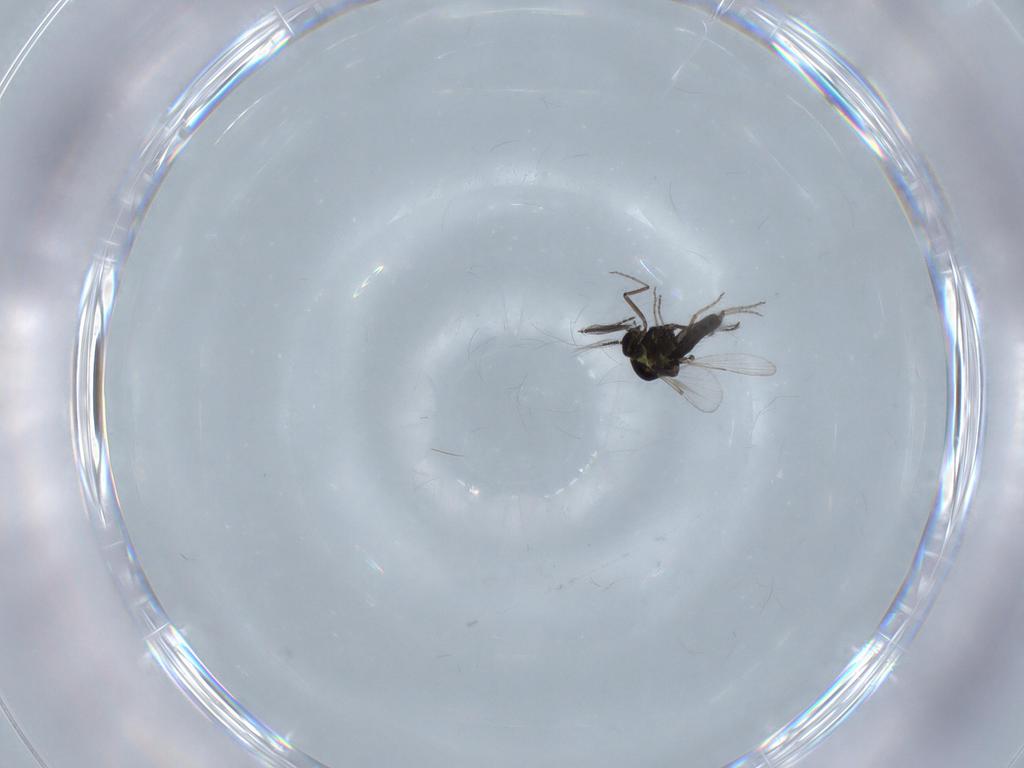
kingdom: Animalia
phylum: Arthropoda
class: Insecta
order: Diptera
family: Ceratopogonidae
